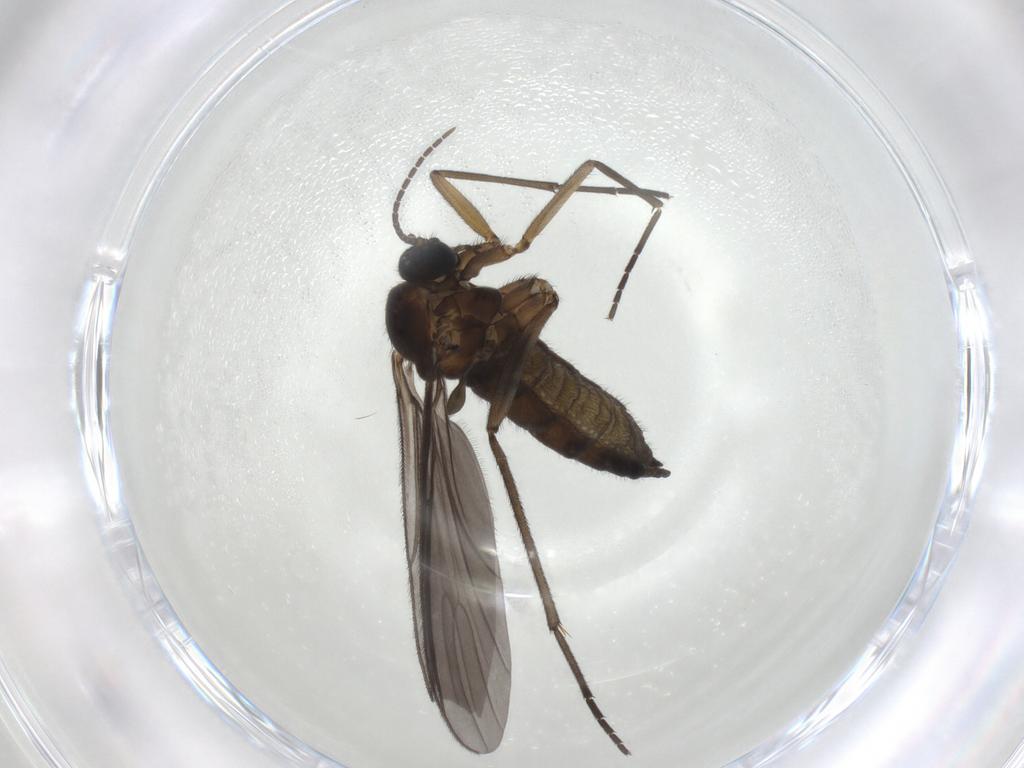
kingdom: Animalia
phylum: Arthropoda
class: Insecta
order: Diptera
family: Sciaridae
